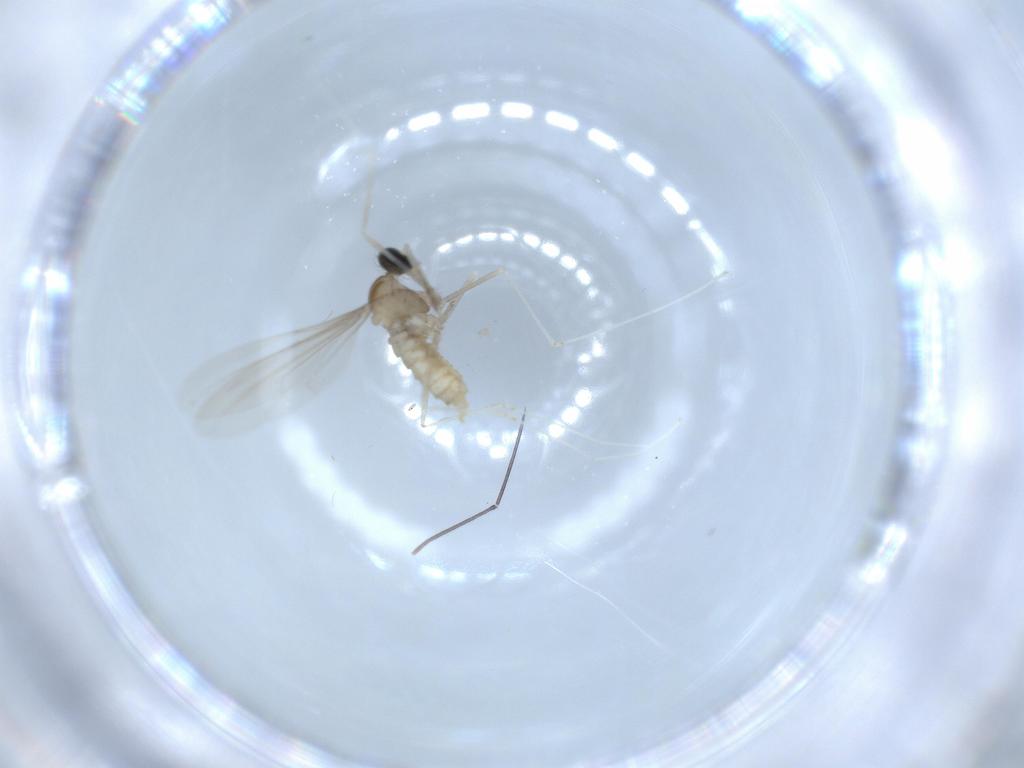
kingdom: Animalia
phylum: Arthropoda
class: Insecta
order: Diptera
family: Cecidomyiidae
